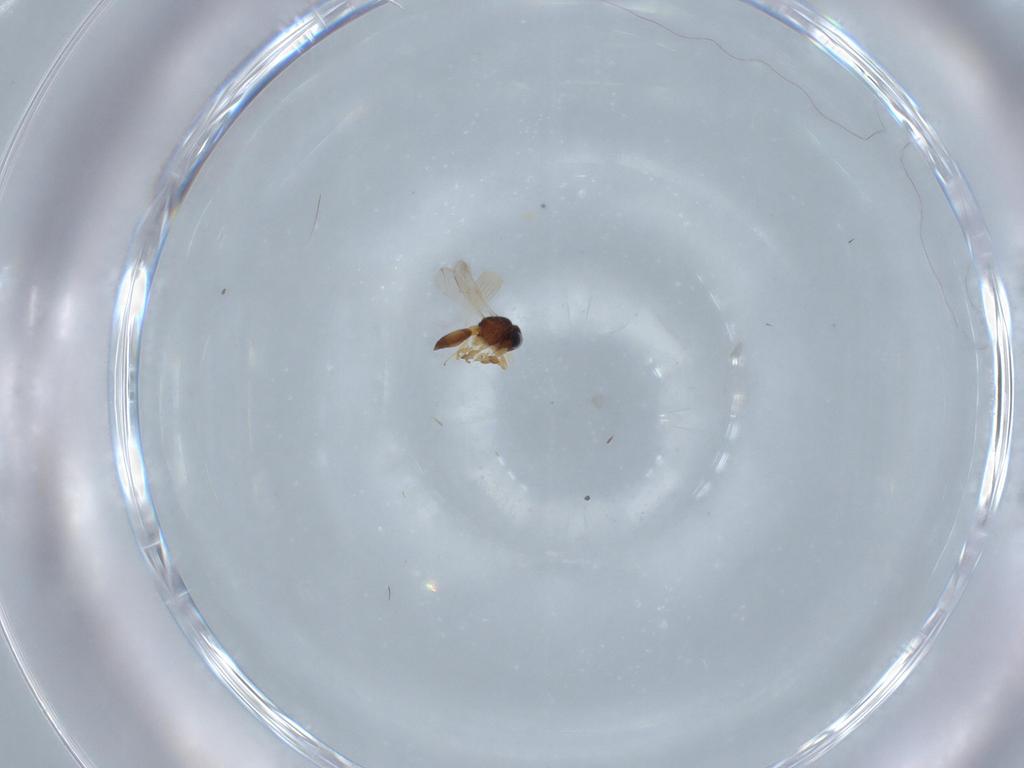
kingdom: Animalia
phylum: Arthropoda
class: Insecta
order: Hymenoptera
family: Scelionidae
